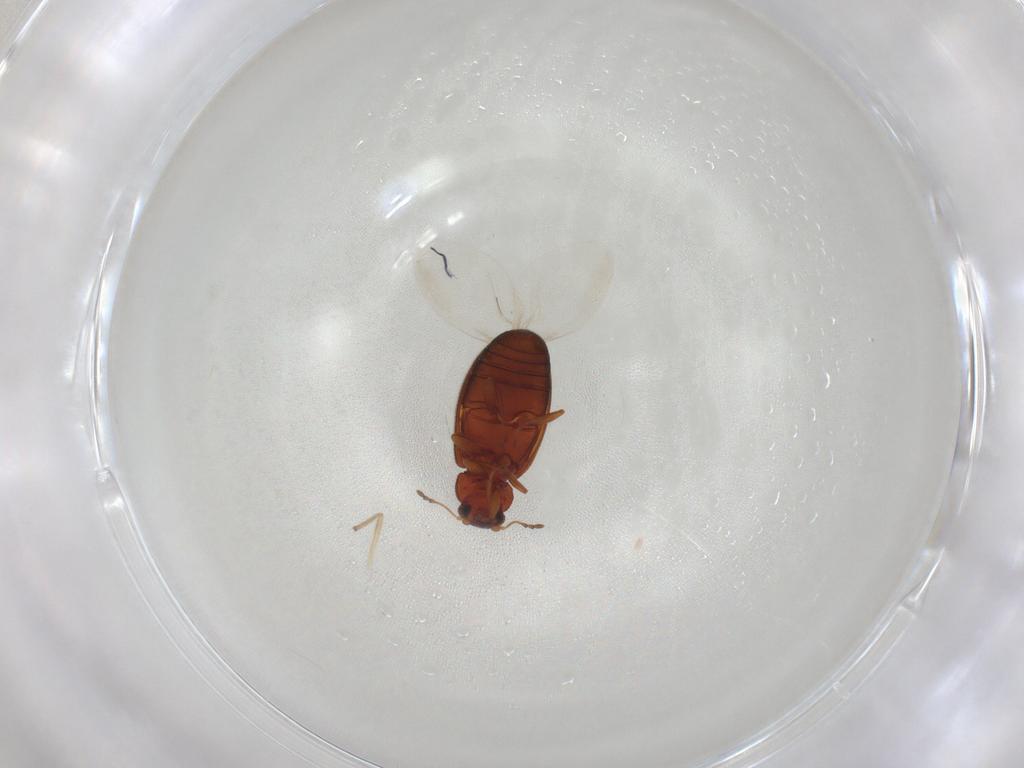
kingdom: Animalia
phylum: Arthropoda
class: Insecta
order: Coleoptera
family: Latridiidae
